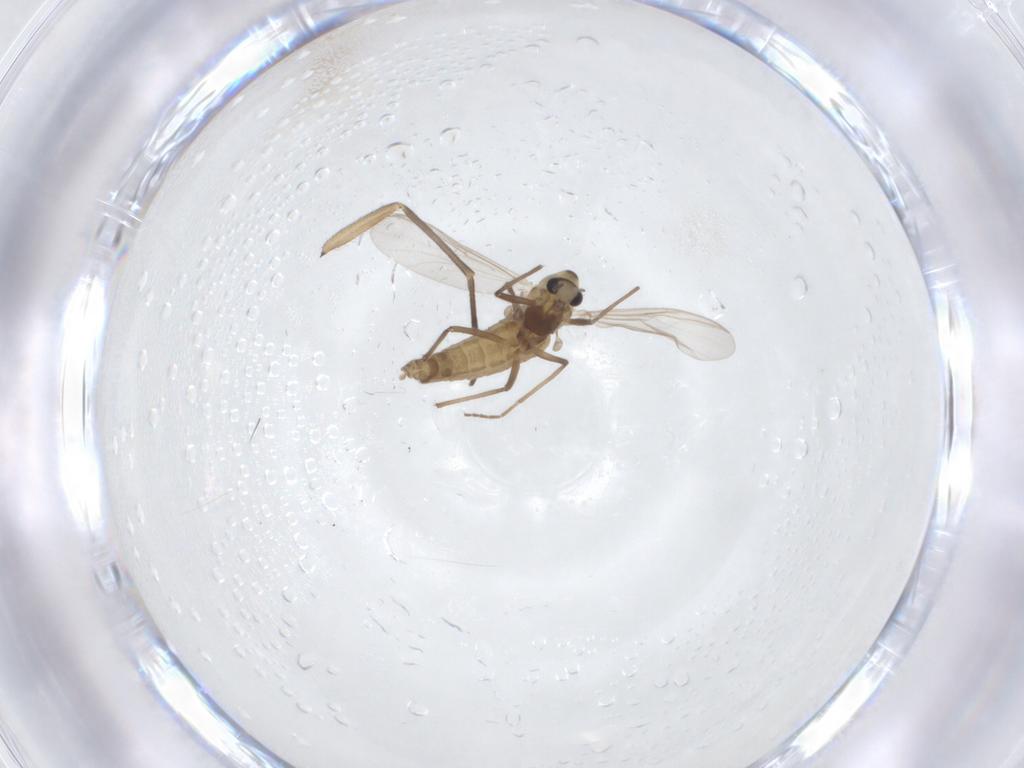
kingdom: Animalia
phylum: Arthropoda
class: Insecta
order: Diptera
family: Chironomidae
